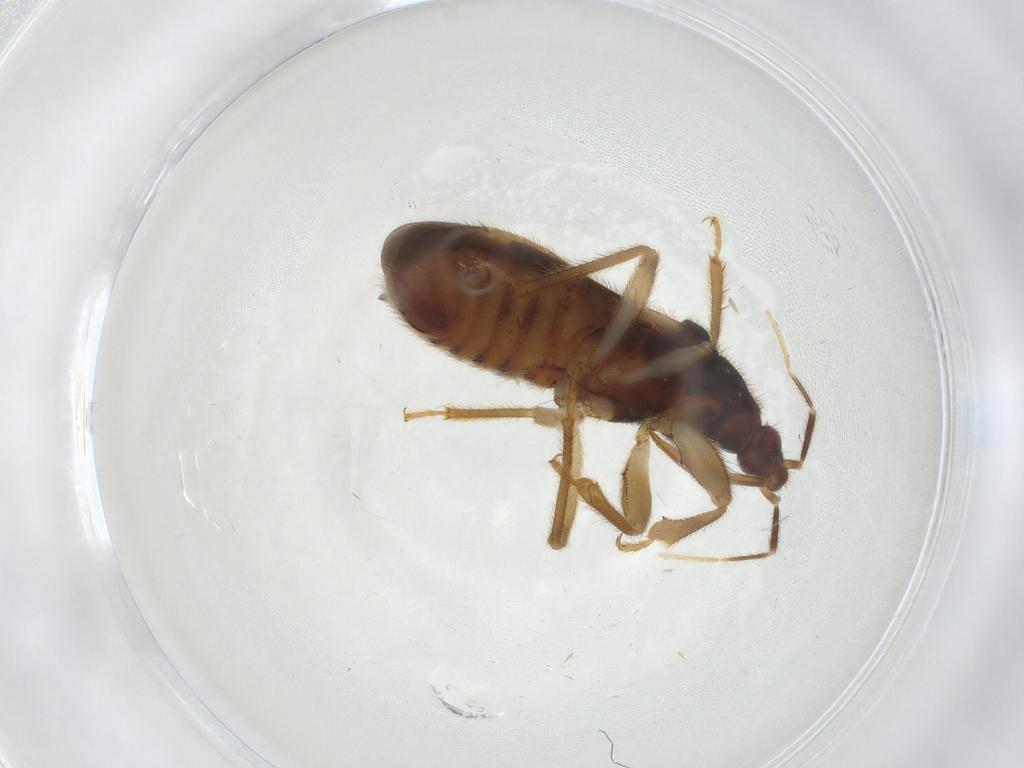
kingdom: Animalia
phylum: Arthropoda
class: Insecta
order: Hemiptera
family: Nabidae
